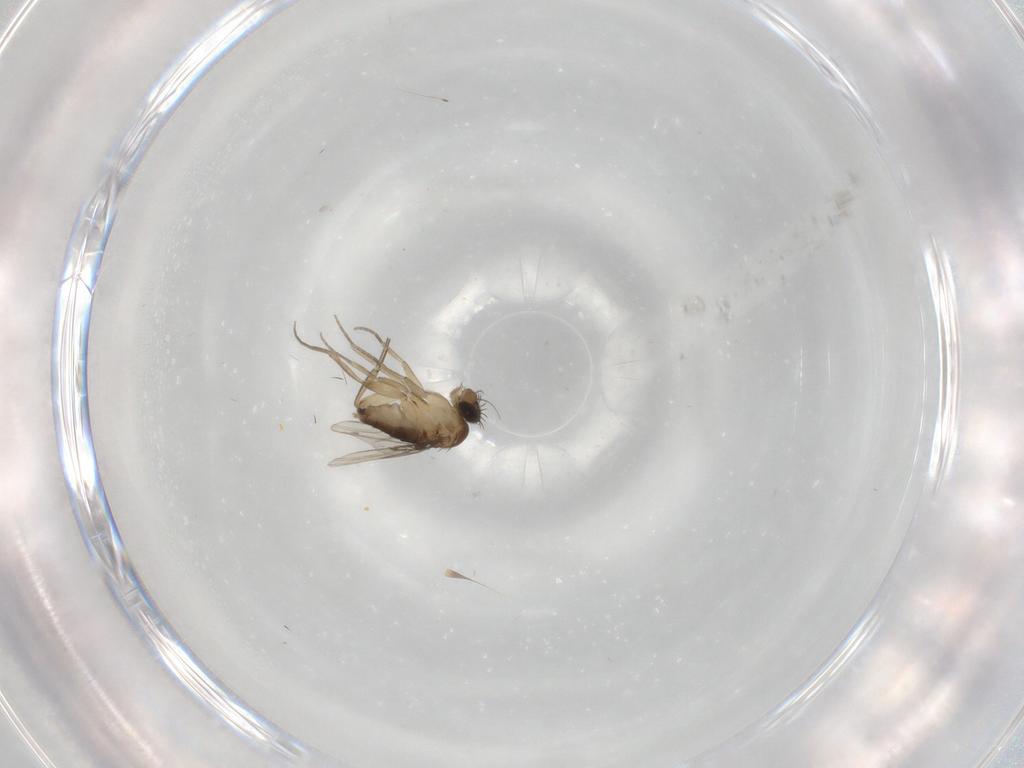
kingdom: Animalia
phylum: Arthropoda
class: Insecta
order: Diptera
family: Phoridae
